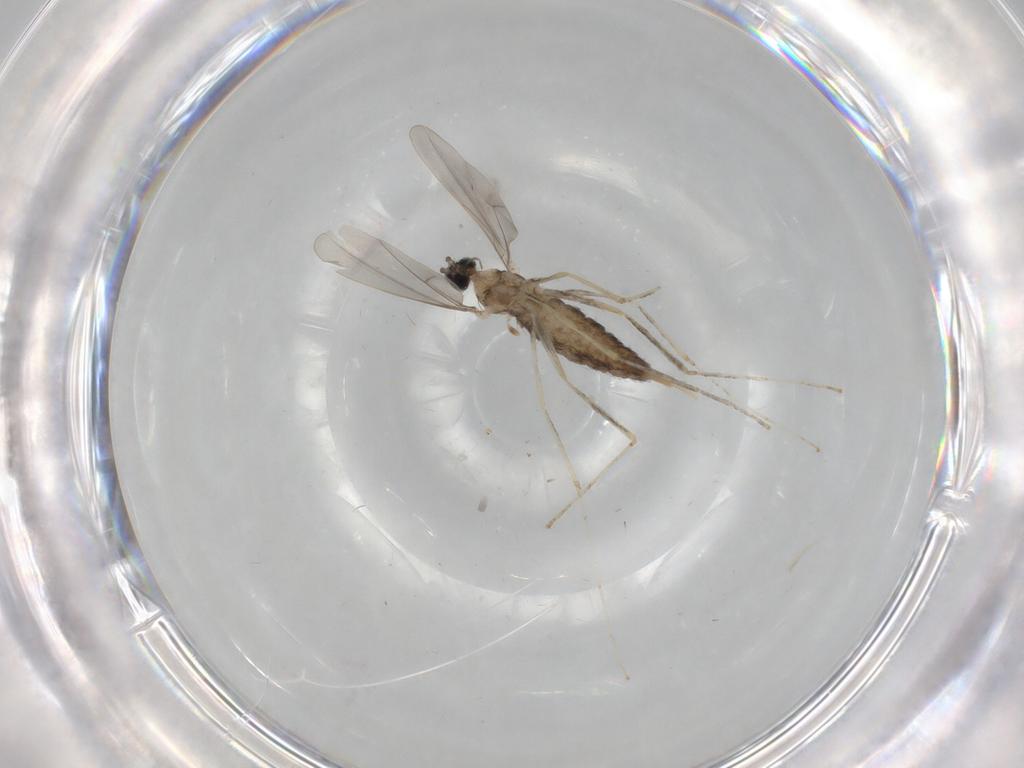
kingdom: Animalia
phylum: Arthropoda
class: Insecta
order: Diptera
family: Cecidomyiidae
